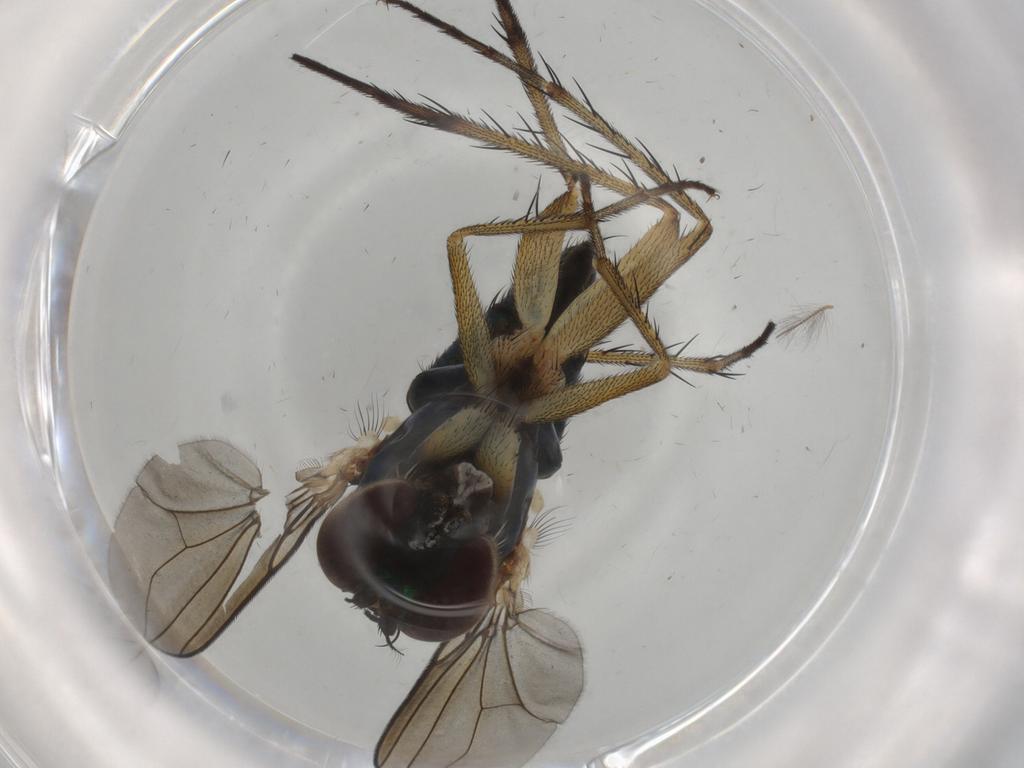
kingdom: Animalia
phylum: Arthropoda
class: Insecta
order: Diptera
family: Dolichopodidae
